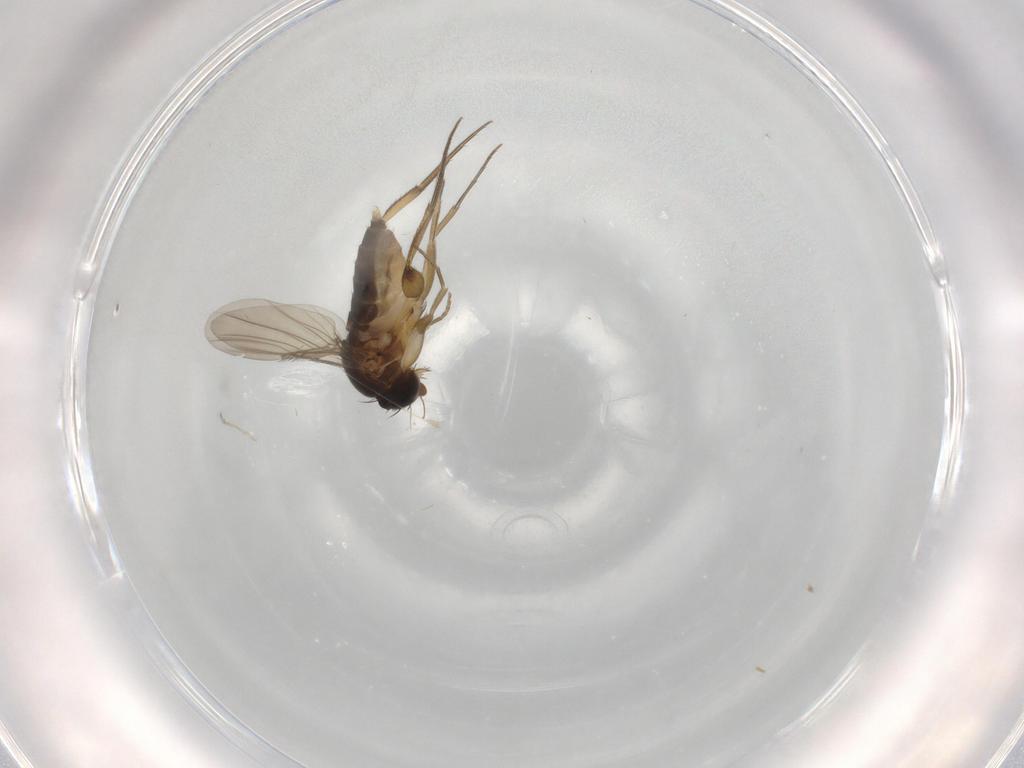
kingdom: Animalia
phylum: Arthropoda
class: Insecta
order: Diptera
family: Phoridae
